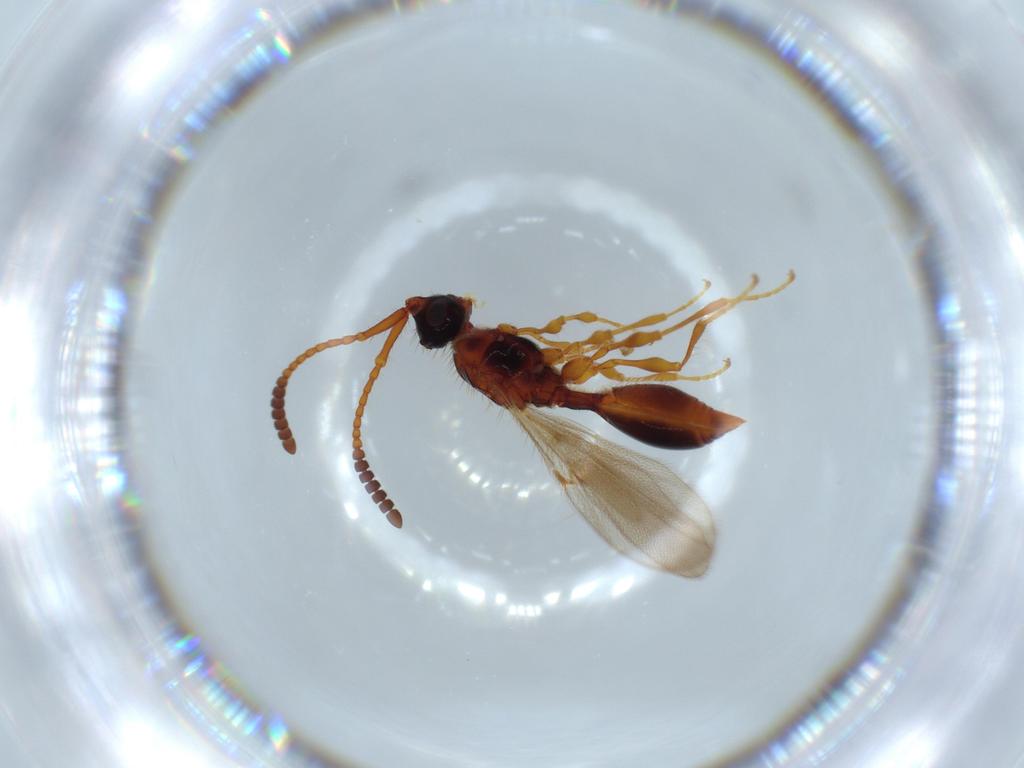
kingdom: Animalia
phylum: Arthropoda
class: Insecta
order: Hymenoptera
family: Diapriidae
